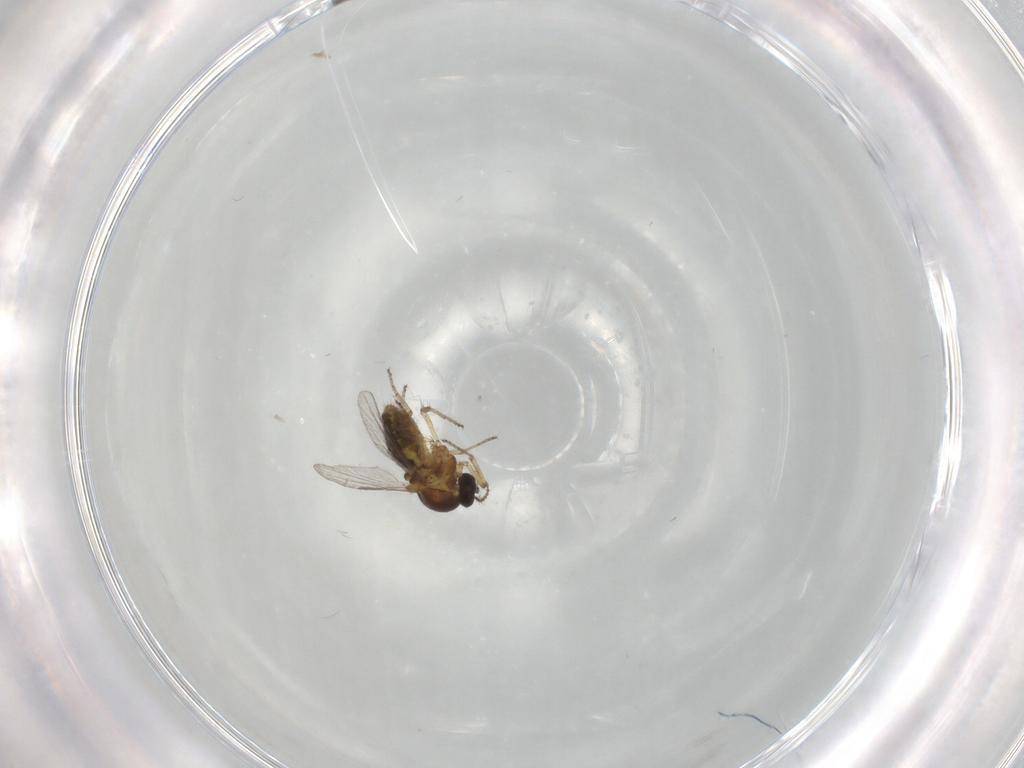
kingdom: Animalia
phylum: Arthropoda
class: Insecta
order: Diptera
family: Ceratopogonidae
